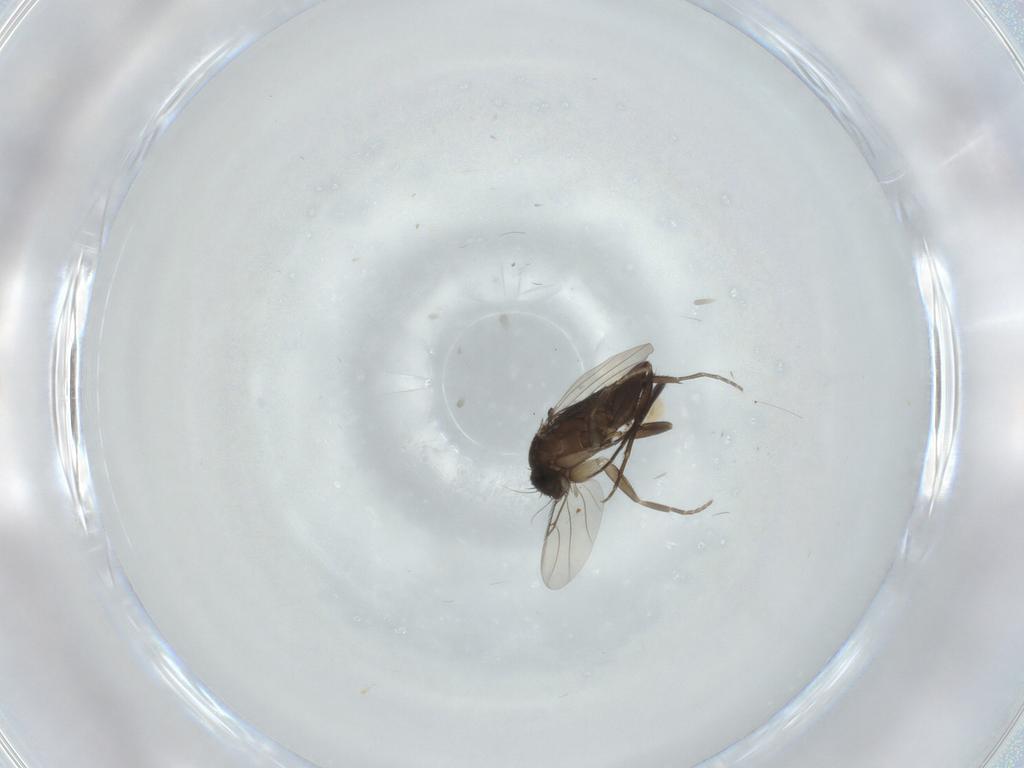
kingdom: Animalia
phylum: Arthropoda
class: Insecta
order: Diptera
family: Phoridae
